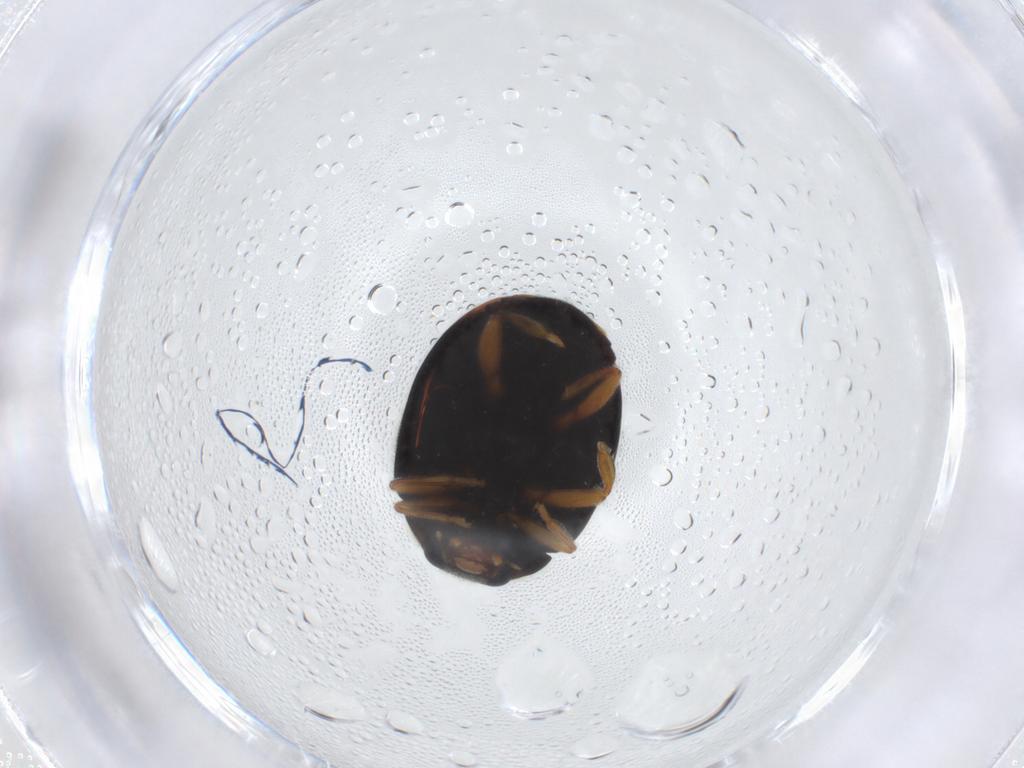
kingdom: Animalia
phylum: Arthropoda
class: Insecta
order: Coleoptera
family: Coccinellidae
